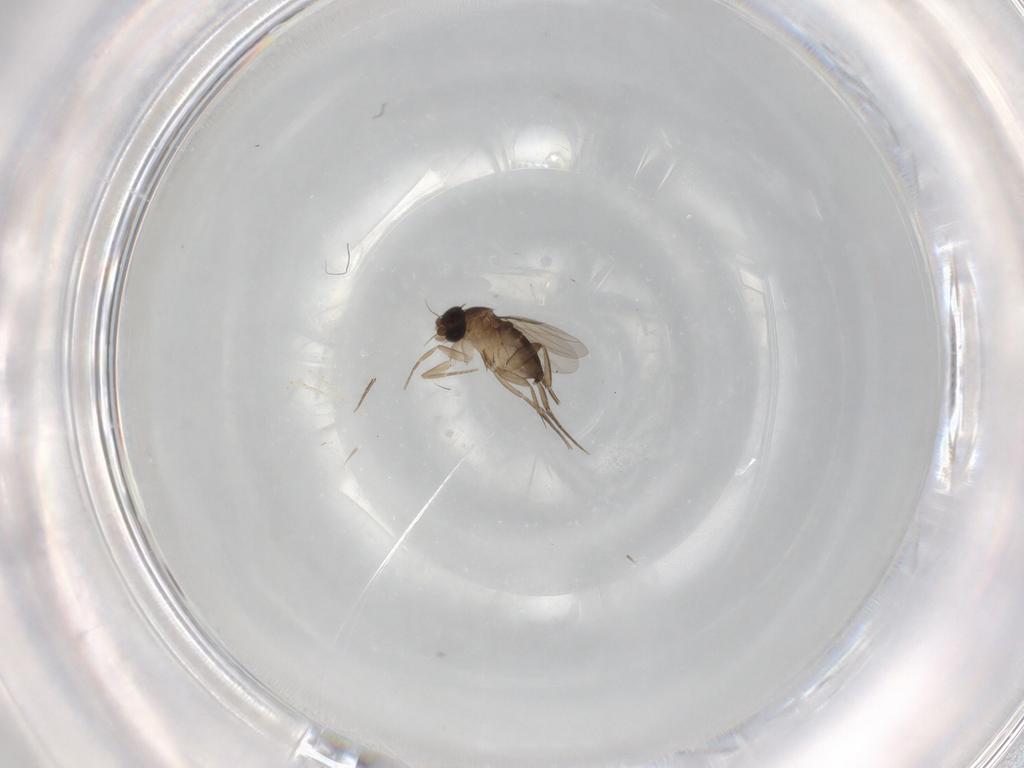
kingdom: Animalia
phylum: Arthropoda
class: Insecta
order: Diptera
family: Cecidomyiidae
